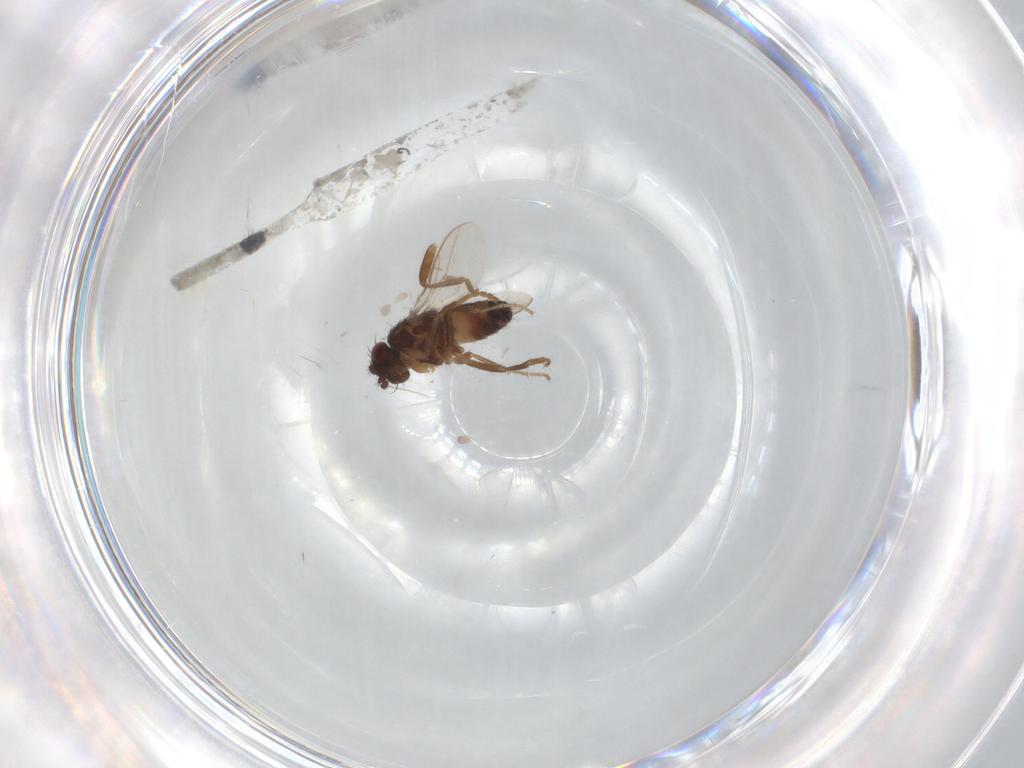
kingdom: Animalia
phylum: Arthropoda
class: Insecta
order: Diptera
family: Sphaeroceridae
